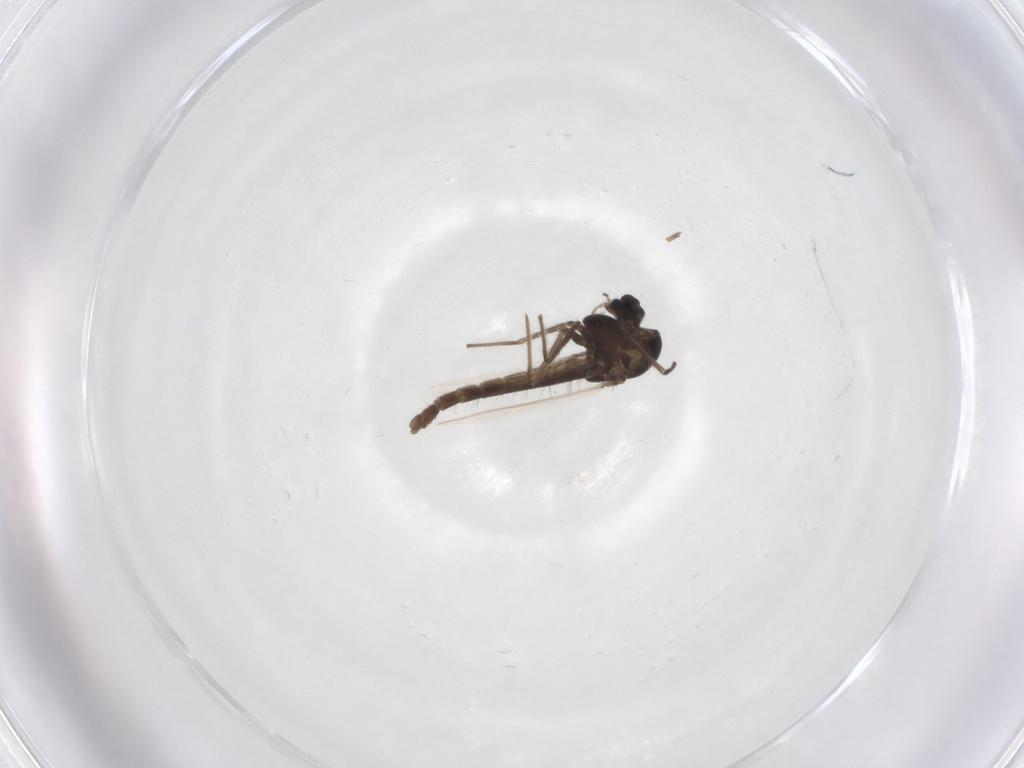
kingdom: Animalia
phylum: Arthropoda
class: Insecta
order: Diptera
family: Chironomidae
